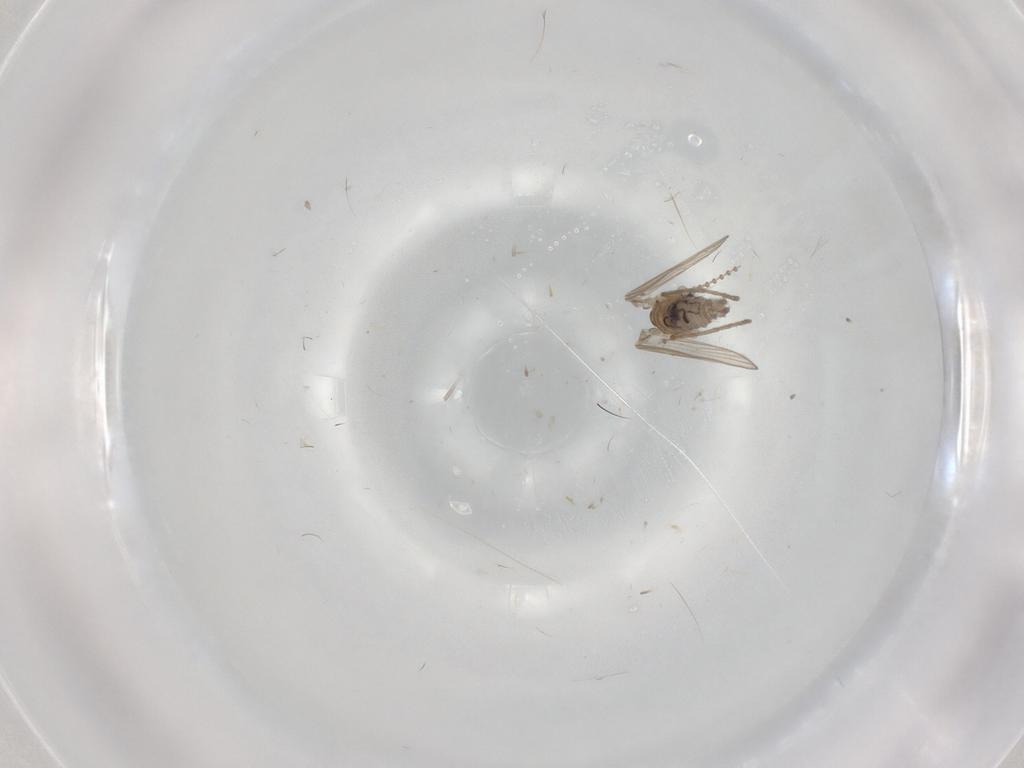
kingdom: Animalia
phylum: Arthropoda
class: Insecta
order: Diptera
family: Psychodidae
